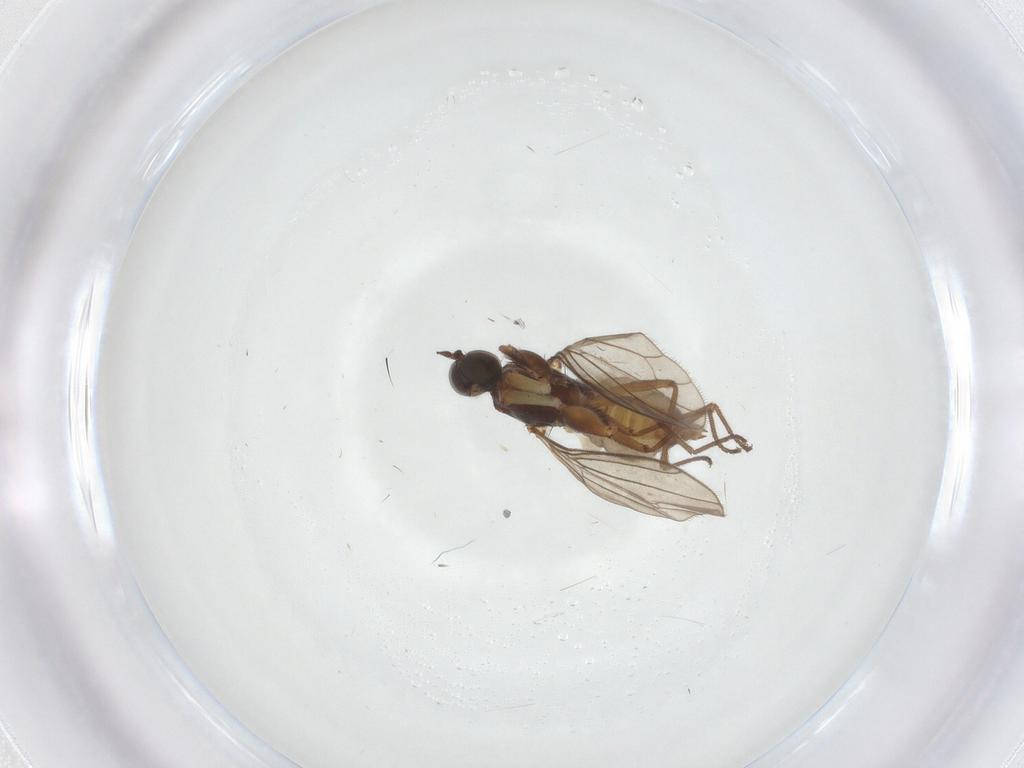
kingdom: Animalia
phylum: Arthropoda
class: Insecta
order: Diptera
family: Empididae
